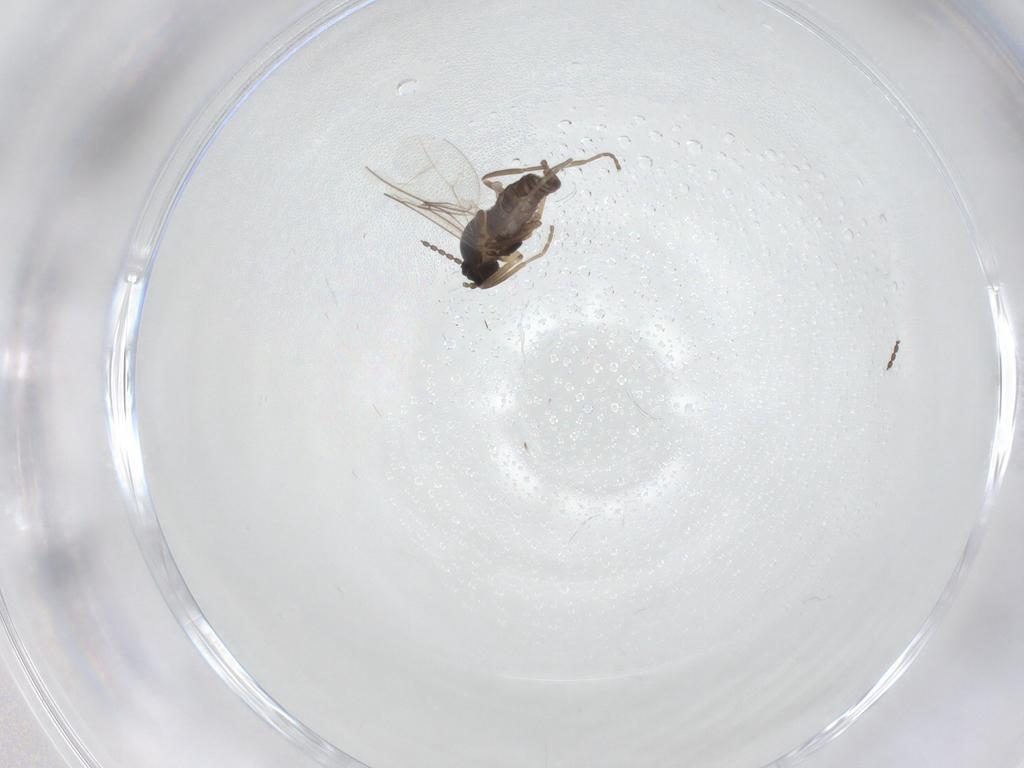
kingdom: Animalia
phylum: Arthropoda
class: Insecta
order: Diptera
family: Cecidomyiidae
